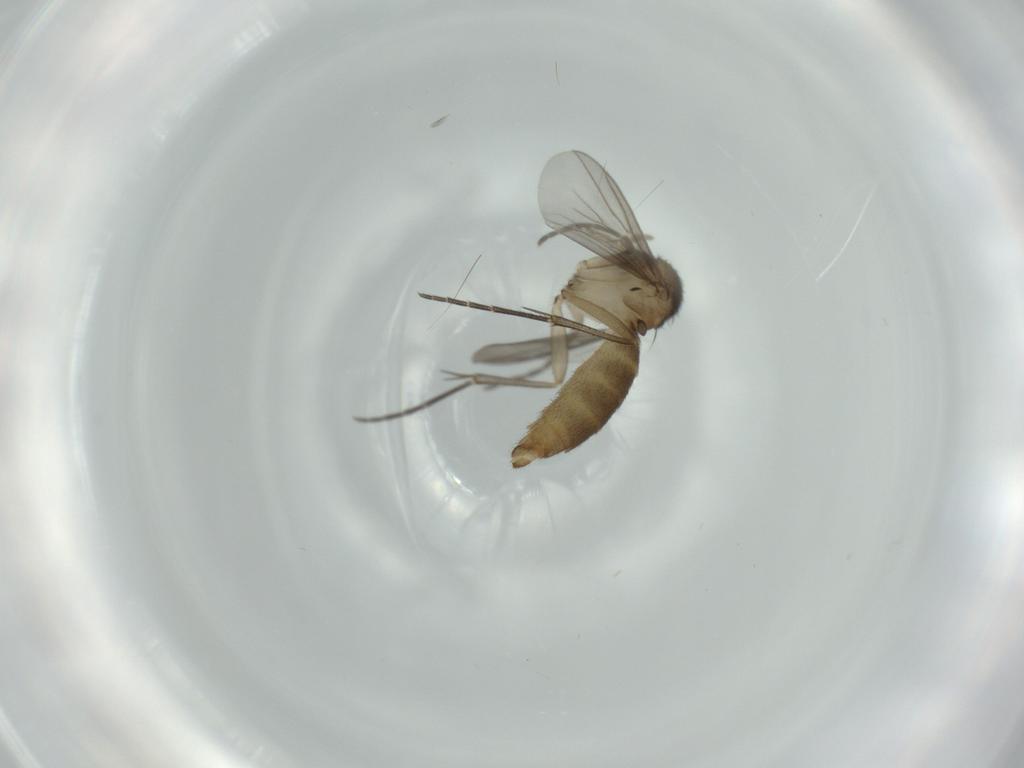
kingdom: Animalia
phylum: Arthropoda
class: Insecta
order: Diptera
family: Mycetophilidae
